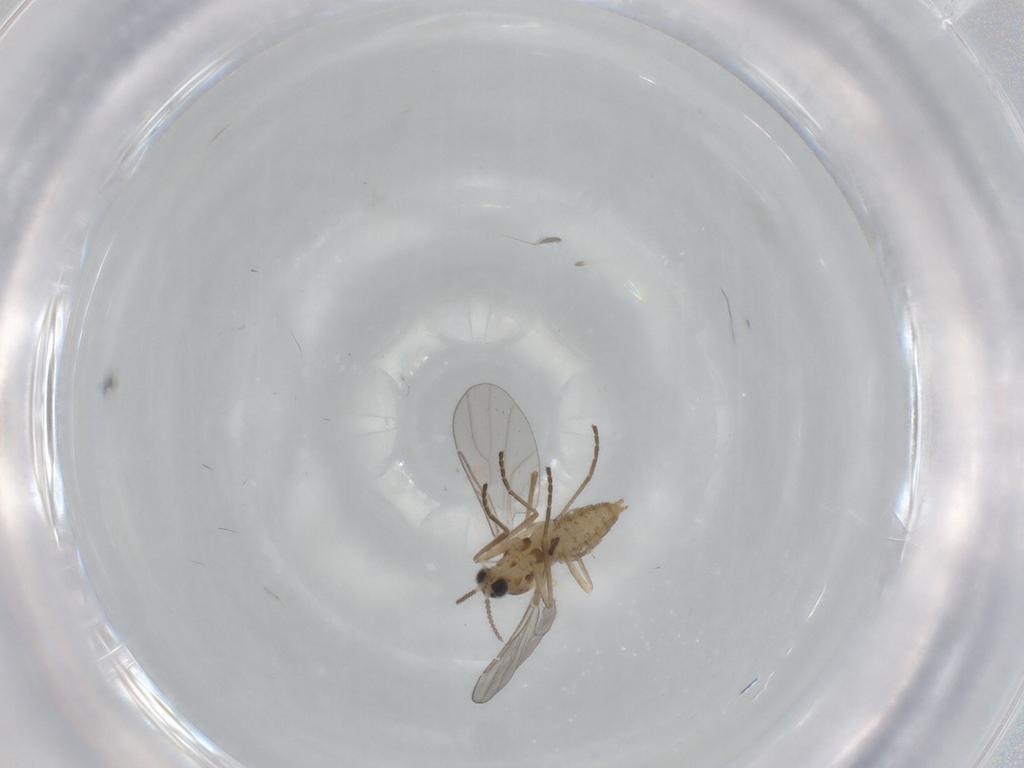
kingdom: Animalia
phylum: Arthropoda
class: Insecta
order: Diptera
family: Cecidomyiidae
